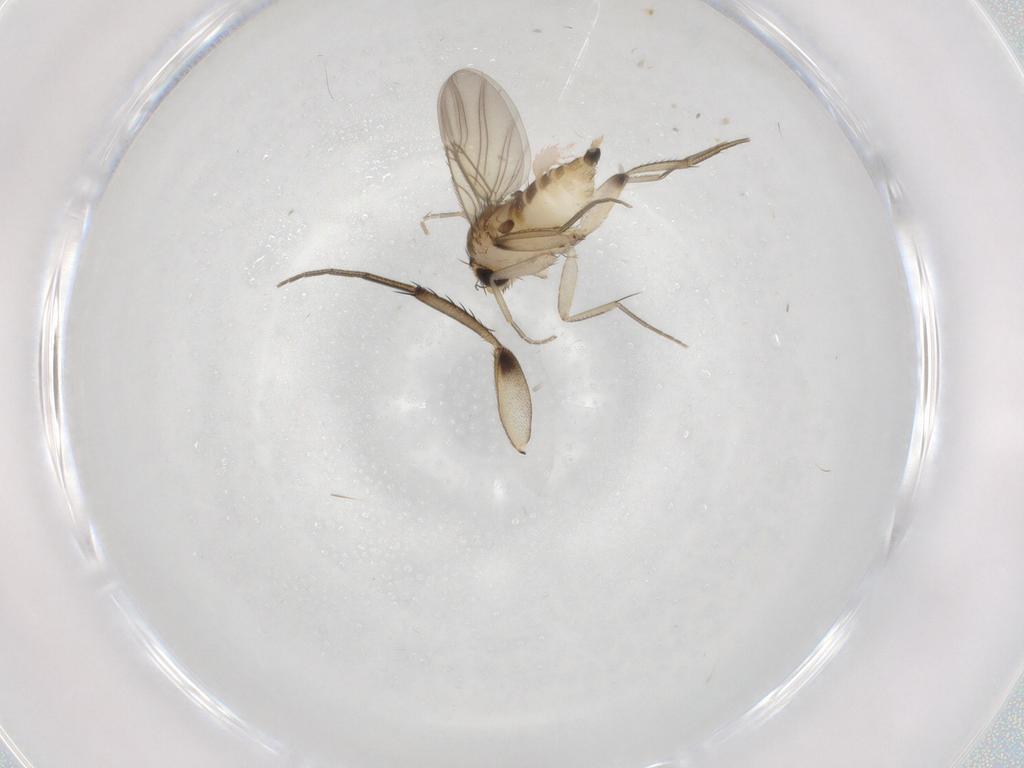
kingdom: Animalia
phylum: Arthropoda
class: Insecta
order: Diptera
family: Phoridae
